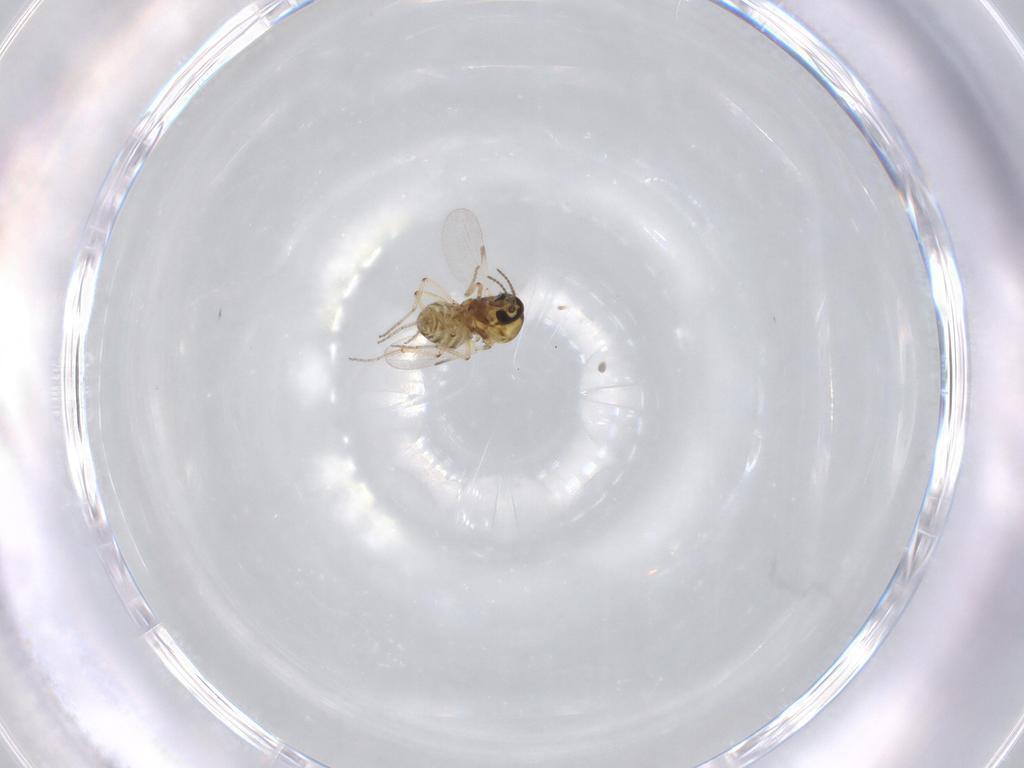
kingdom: Animalia
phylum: Arthropoda
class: Insecta
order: Diptera
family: Ceratopogonidae
